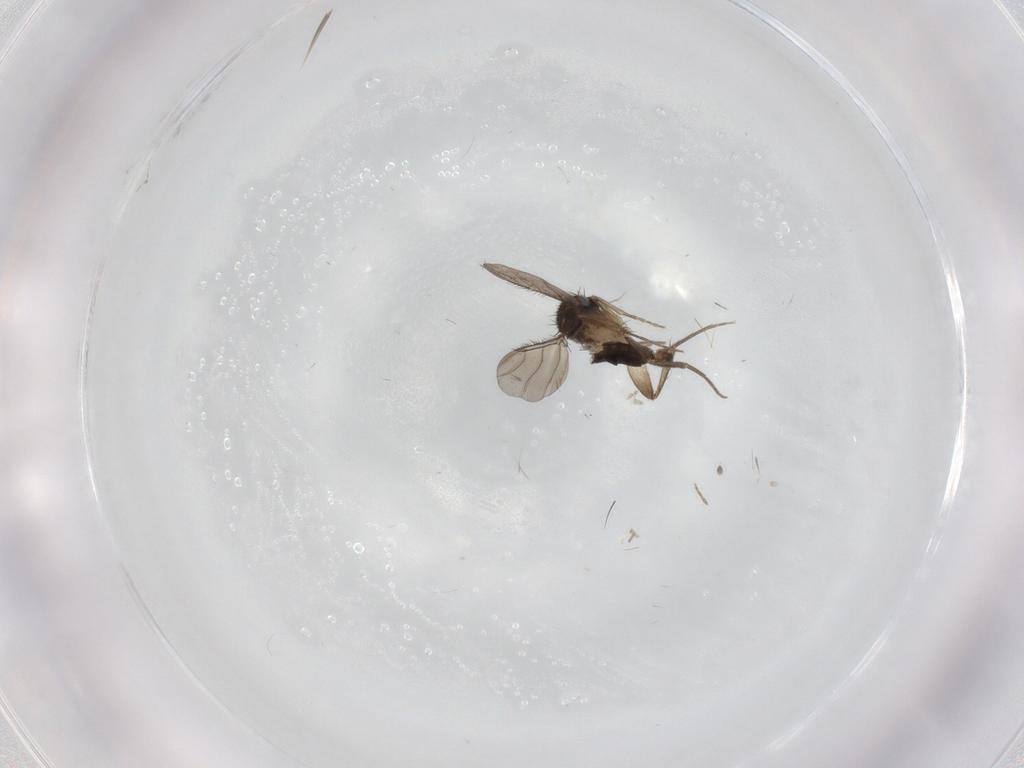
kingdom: Animalia
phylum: Arthropoda
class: Insecta
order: Diptera
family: Phoridae
